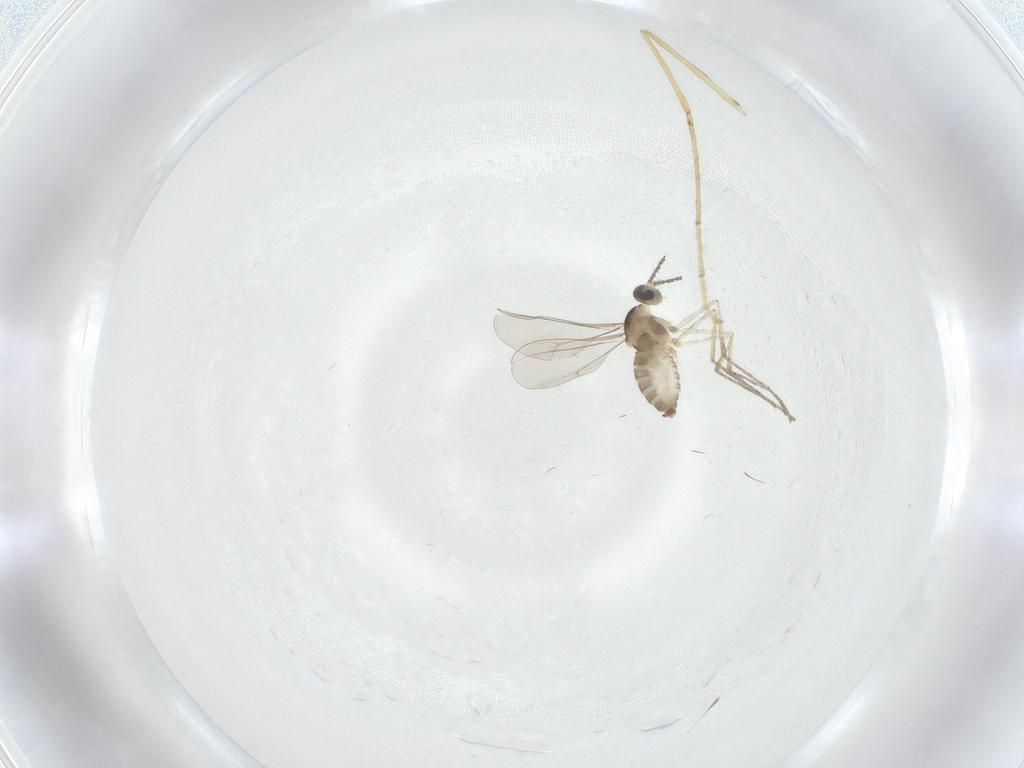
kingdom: Animalia
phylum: Arthropoda
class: Insecta
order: Diptera
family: Cecidomyiidae
